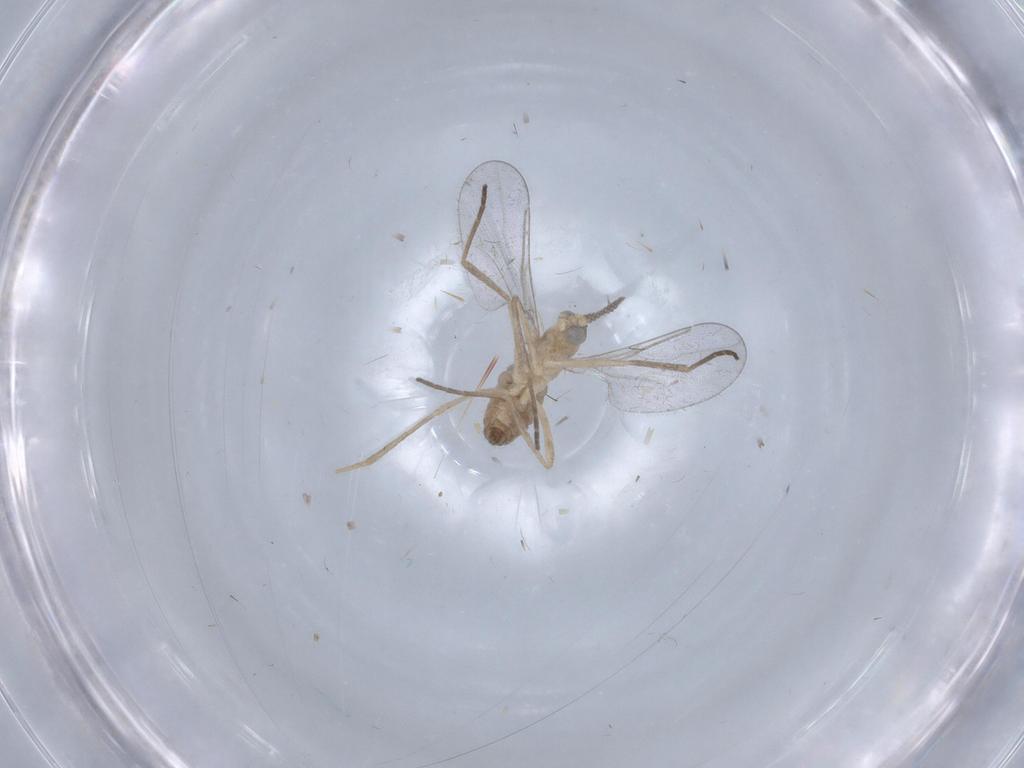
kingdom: Animalia
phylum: Arthropoda
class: Insecta
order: Diptera
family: Cecidomyiidae
